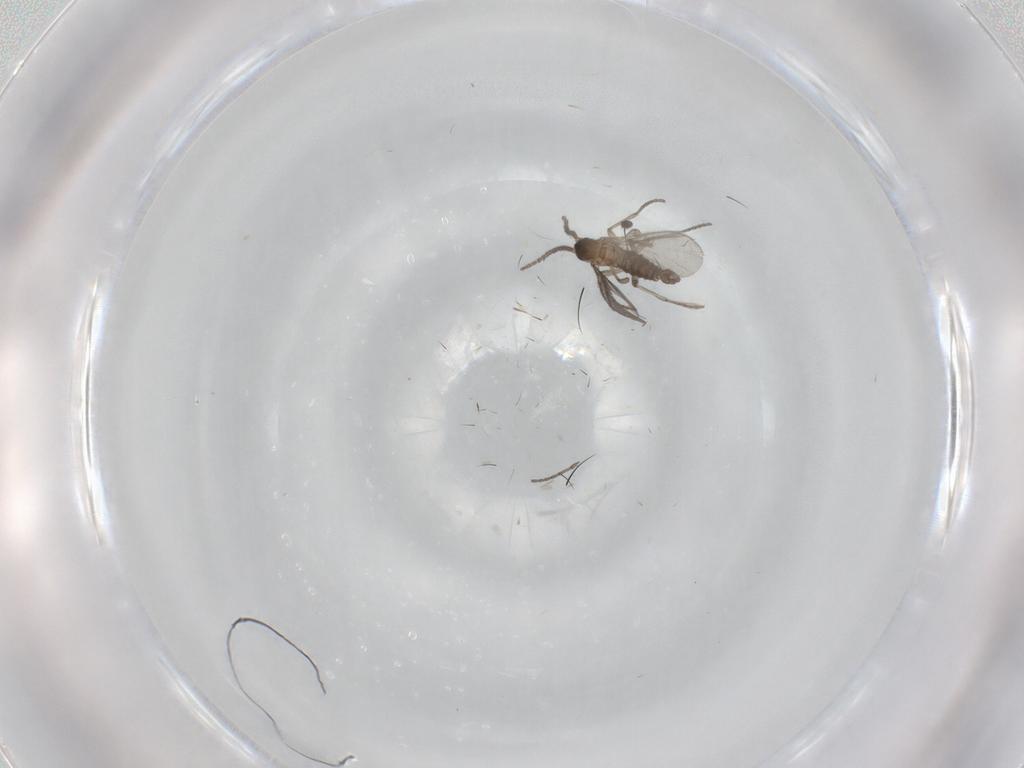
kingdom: Animalia
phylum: Arthropoda
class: Insecta
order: Diptera
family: Sciaridae
